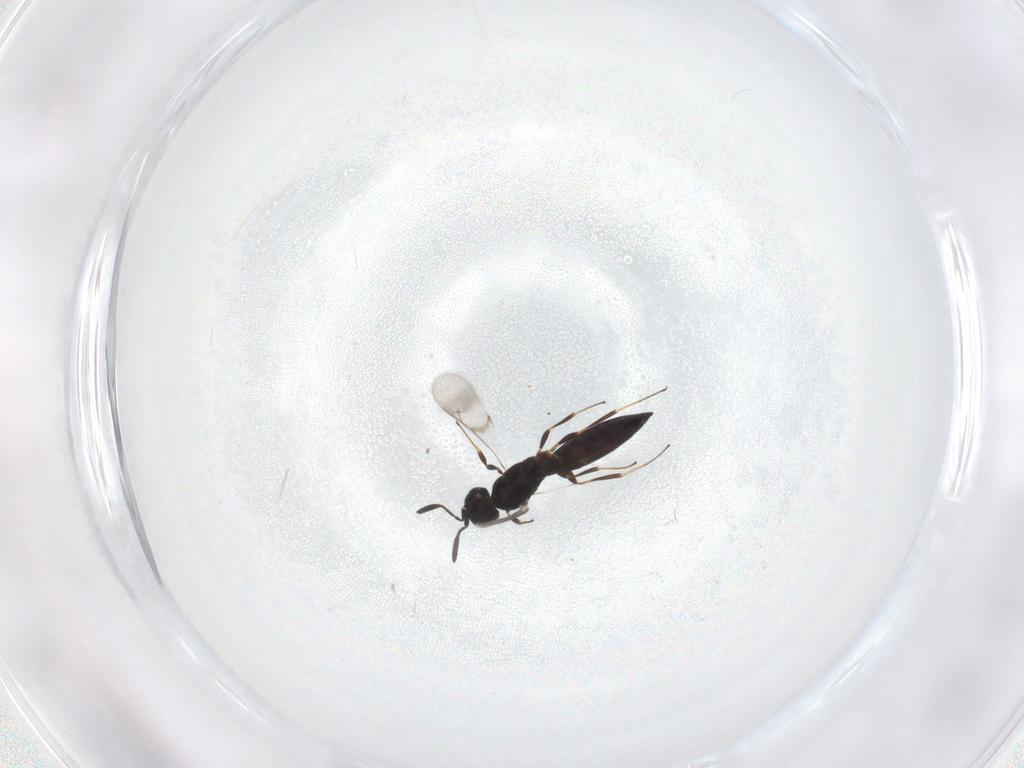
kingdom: Animalia
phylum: Arthropoda
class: Insecta
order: Hymenoptera
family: Scelionidae
